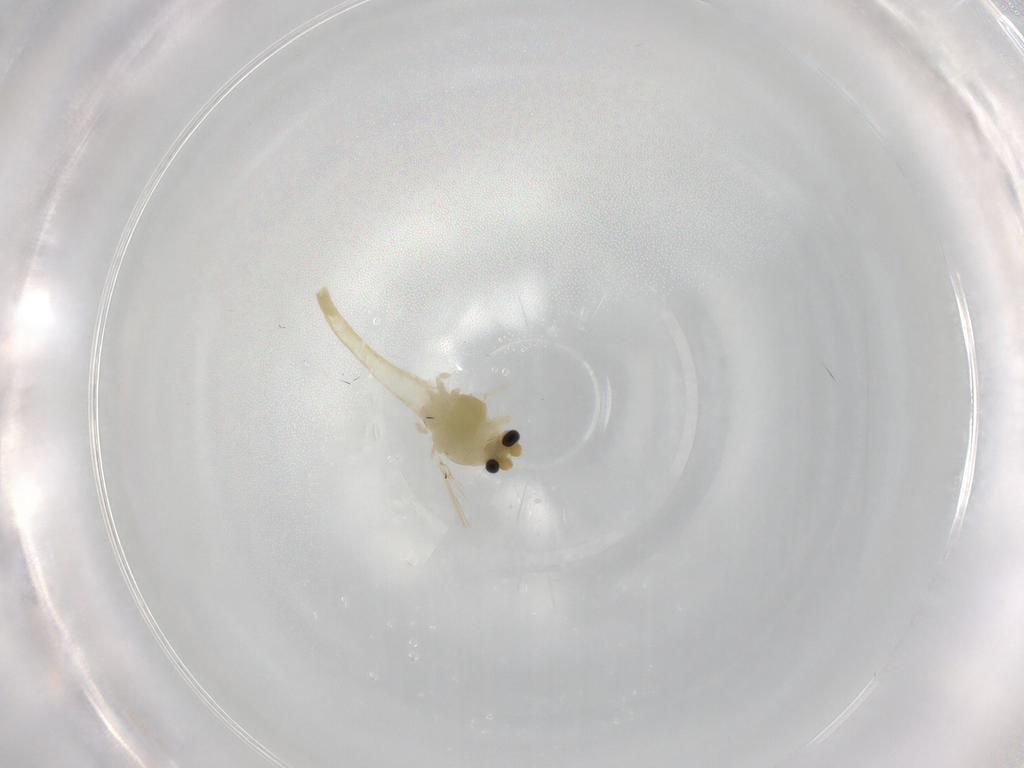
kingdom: Animalia
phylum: Arthropoda
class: Insecta
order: Diptera
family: Chironomidae
